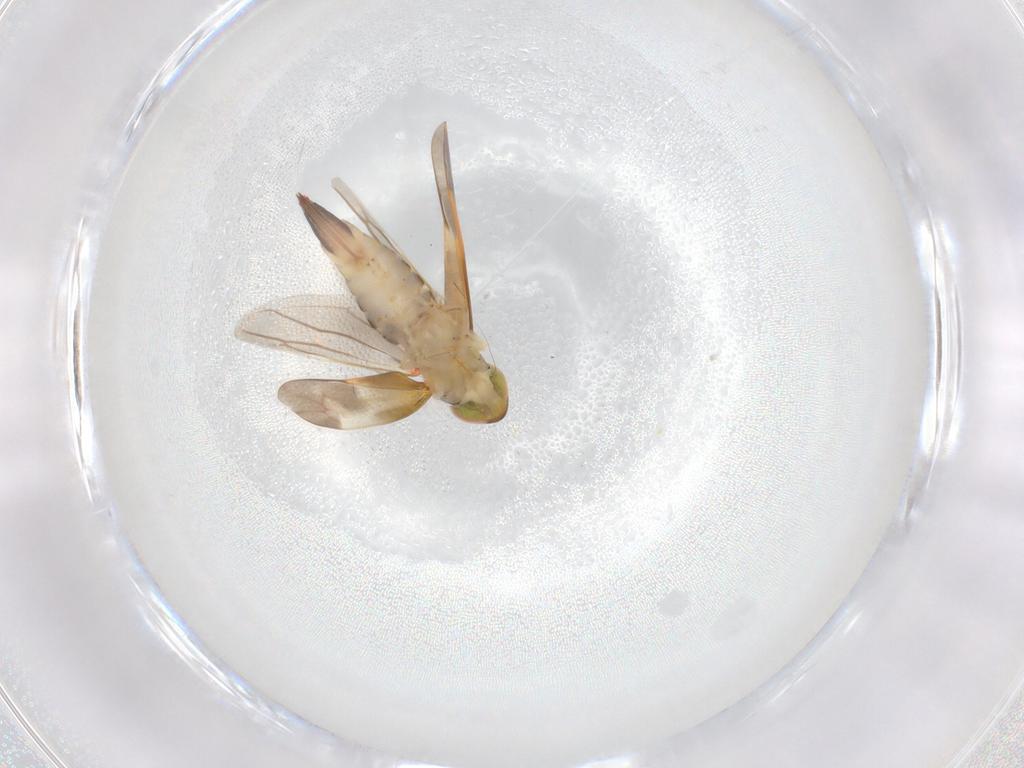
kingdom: Animalia
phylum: Arthropoda
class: Insecta
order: Hemiptera
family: Cicadellidae
